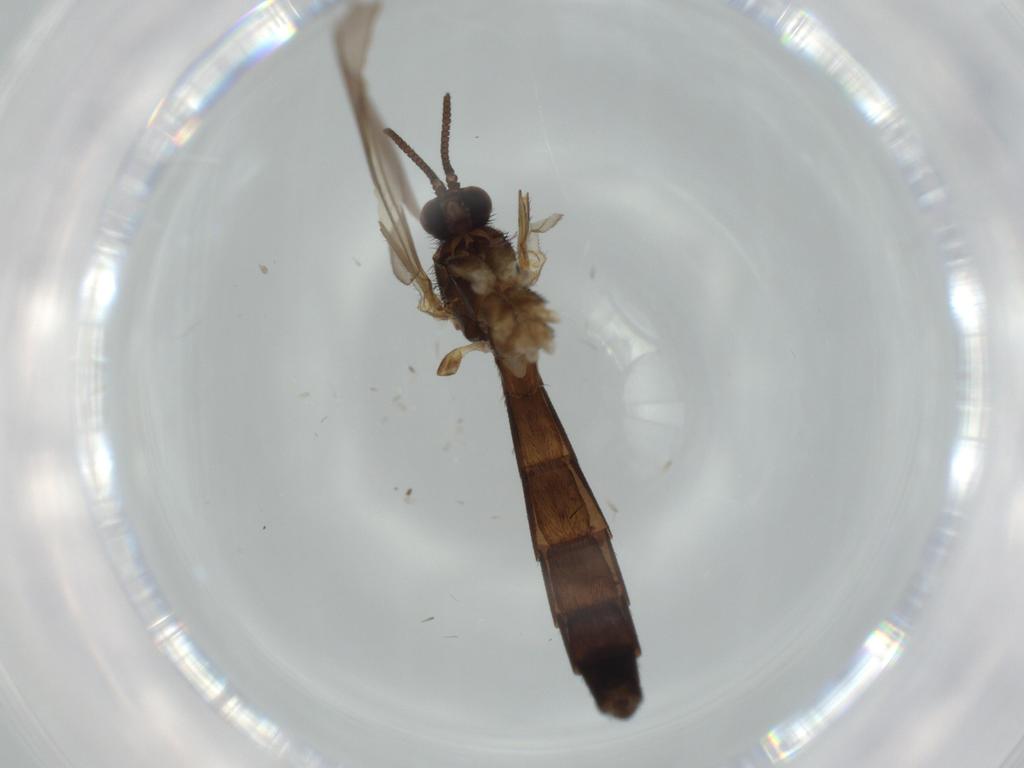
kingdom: Animalia
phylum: Arthropoda
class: Insecta
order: Diptera
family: Keroplatidae
